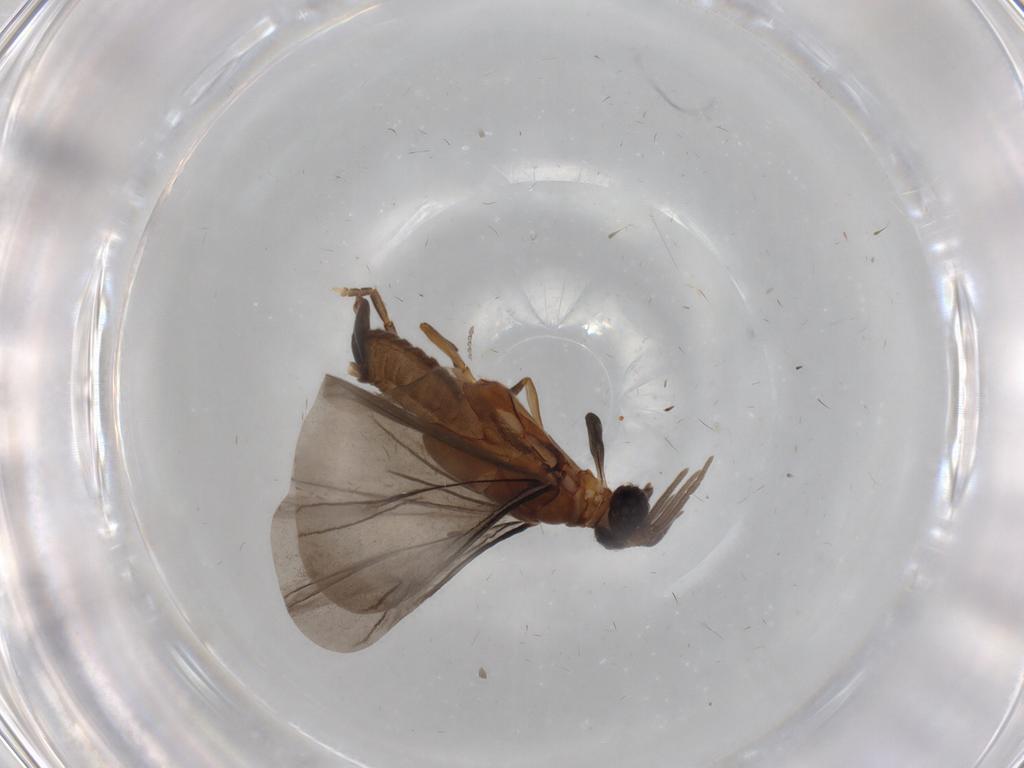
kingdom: Animalia
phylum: Arthropoda
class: Insecta
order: Strepsiptera
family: Corioxenidae
